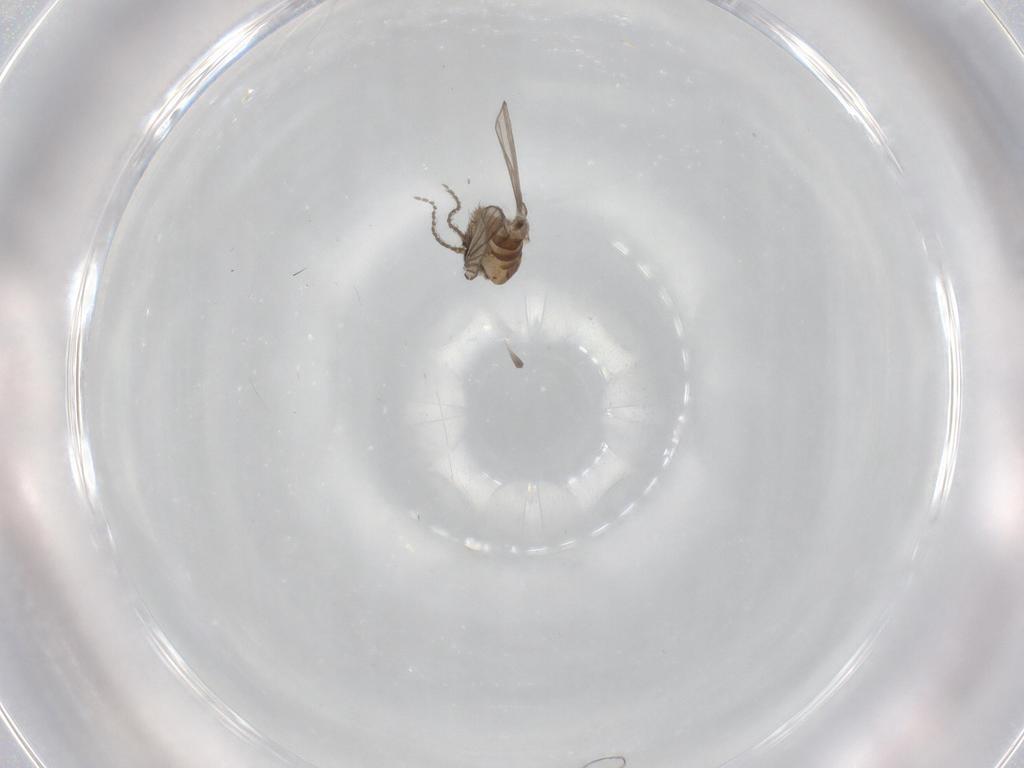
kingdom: Animalia
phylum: Arthropoda
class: Insecta
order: Diptera
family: Psychodidae
